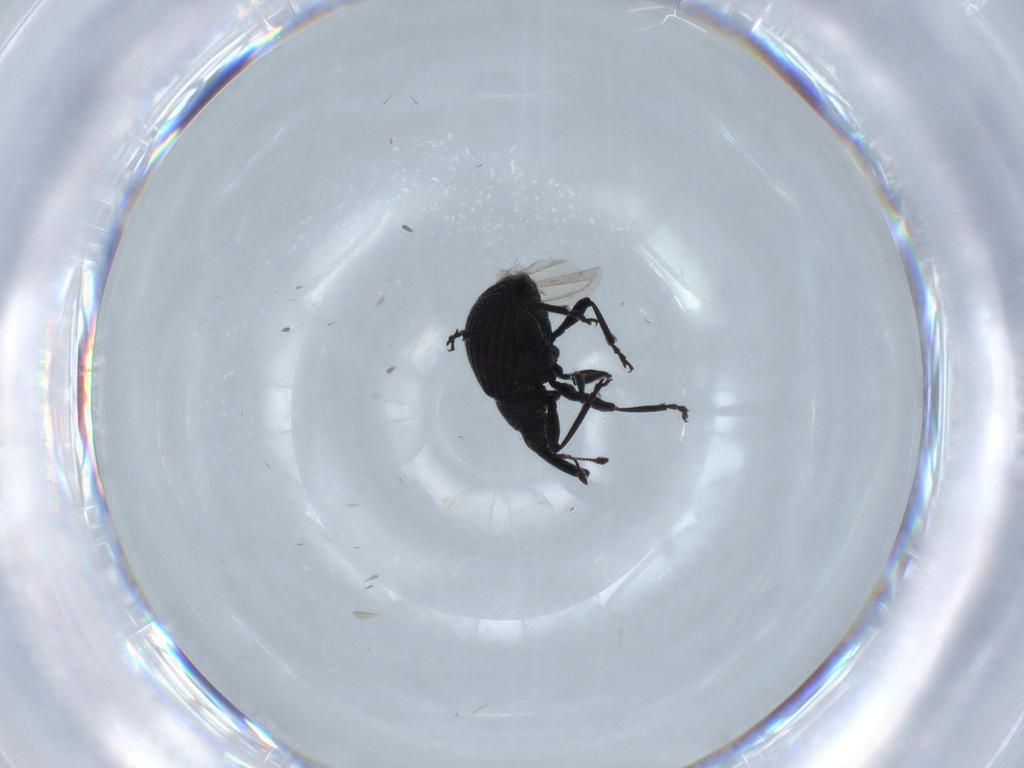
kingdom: Animalia
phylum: Arthropoda
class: Insecta
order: Coleoptera
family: Brentidae
